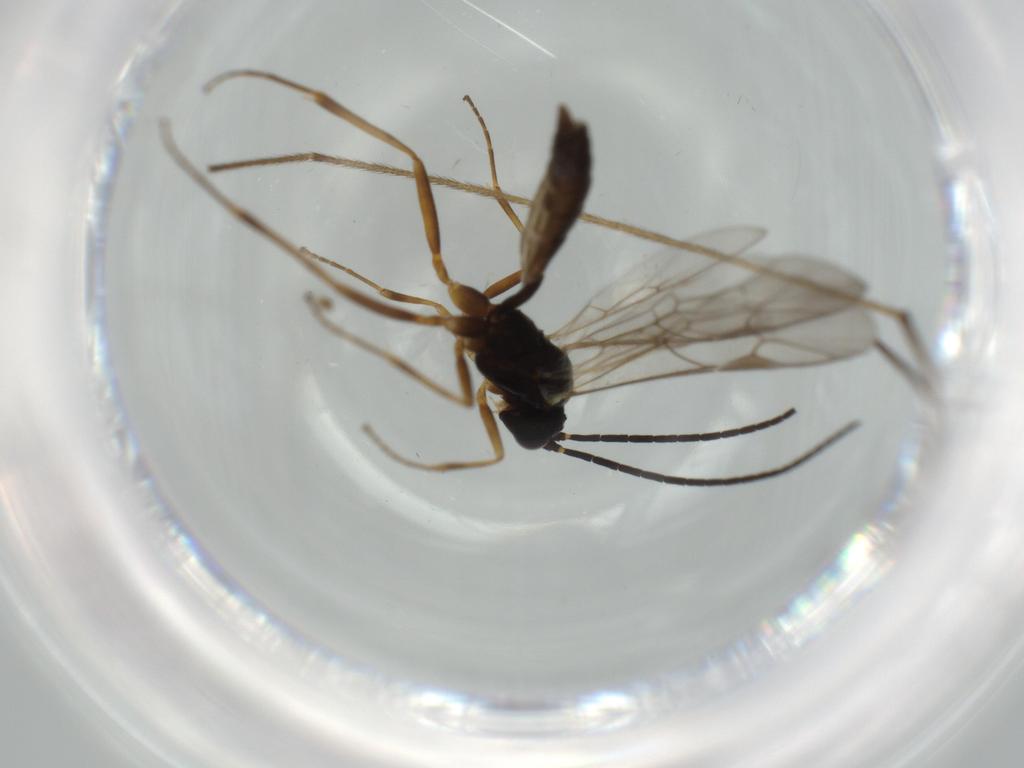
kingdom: Animalia
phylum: Arthropoda
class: Insecta
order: Hymenoptera
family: Ichneumonidae
